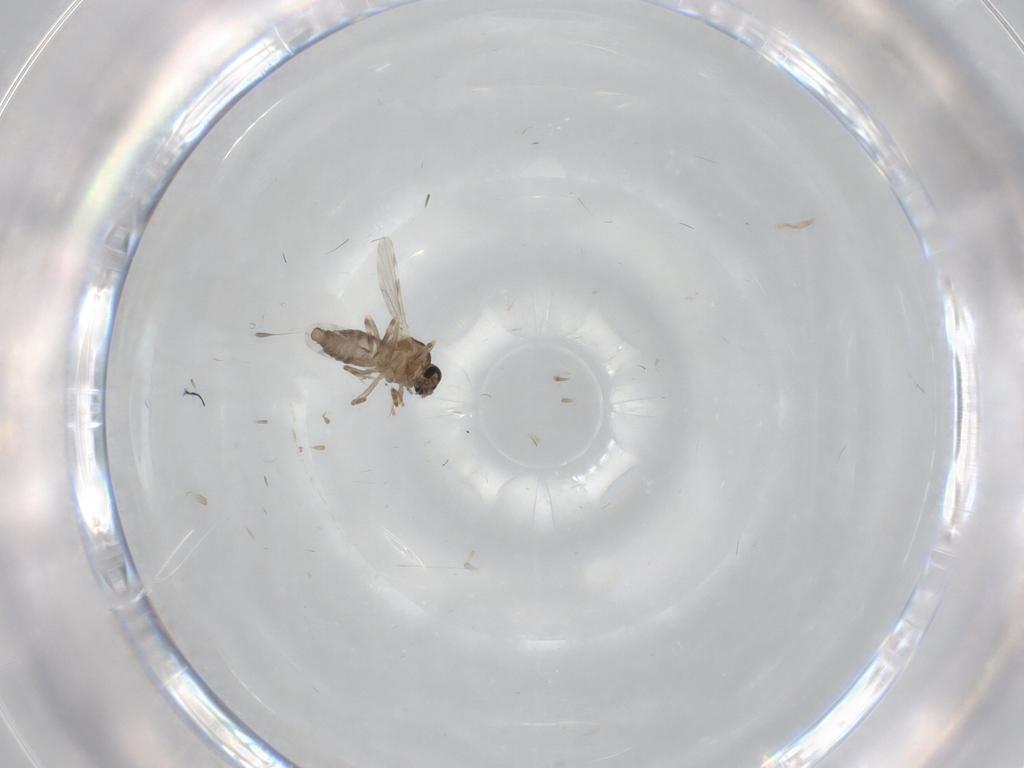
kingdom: Animalia
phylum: Arthropoda
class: Insecta
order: Diptera
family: Ceratopogonidae
